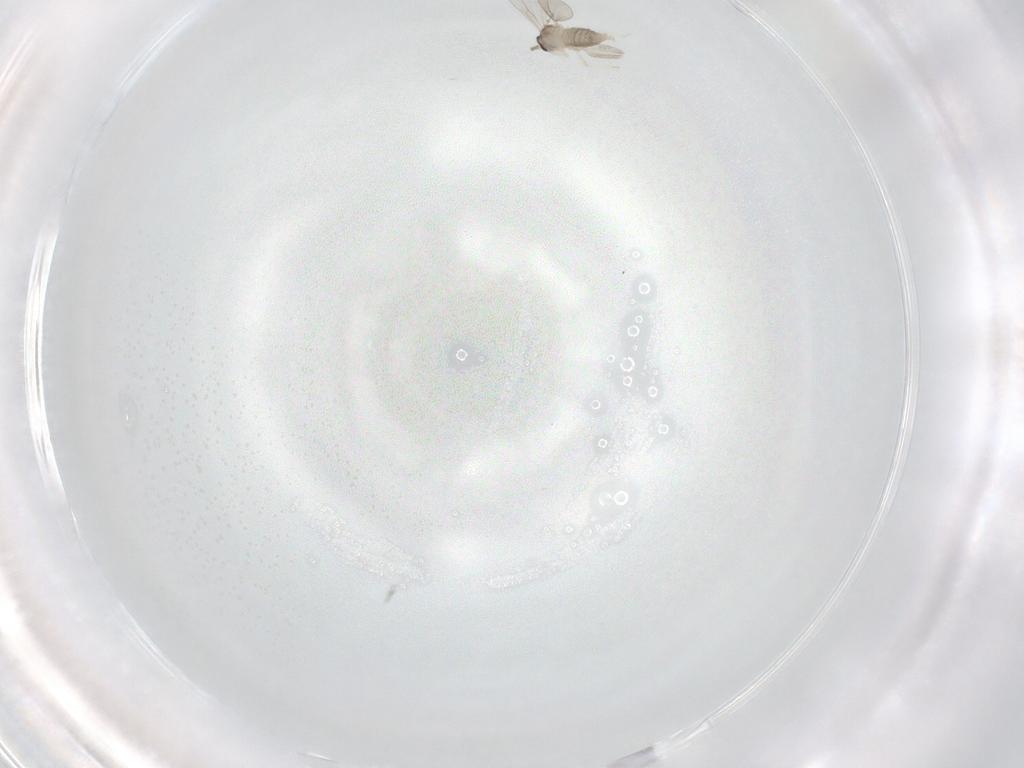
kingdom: Animalia
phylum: Arthropoda
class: Insecta
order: Diptera
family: Cecidomyiidae
